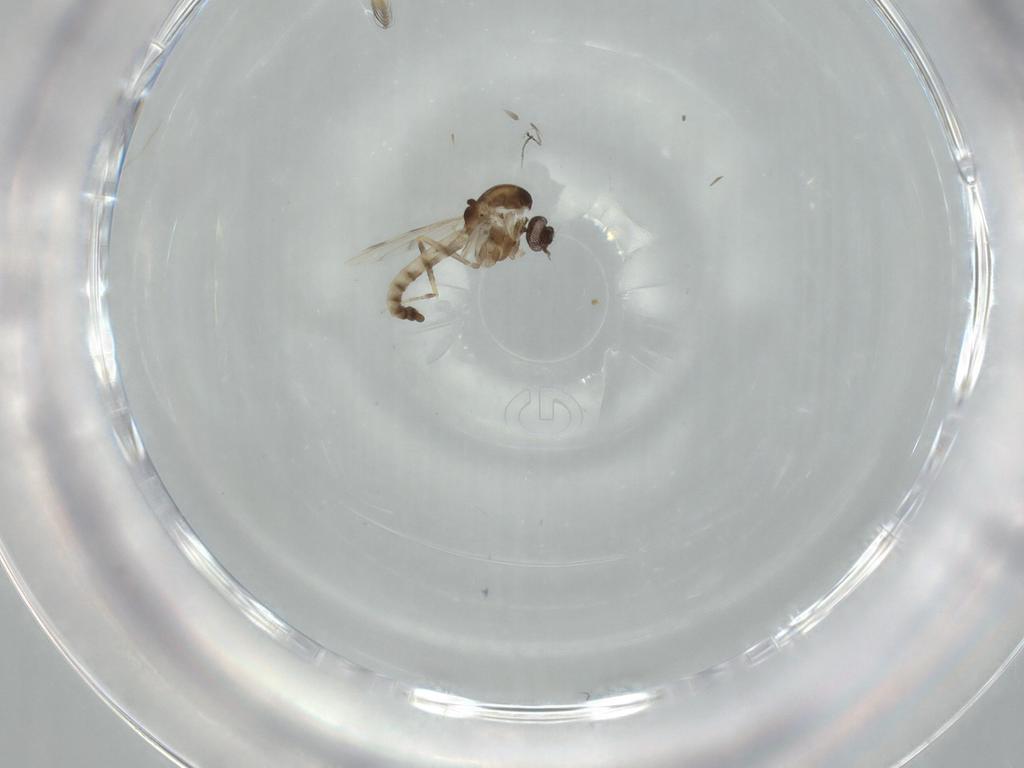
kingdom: Animalia
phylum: Arthropoda
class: Insecta
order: Diptera
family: Ceratopogonidae
